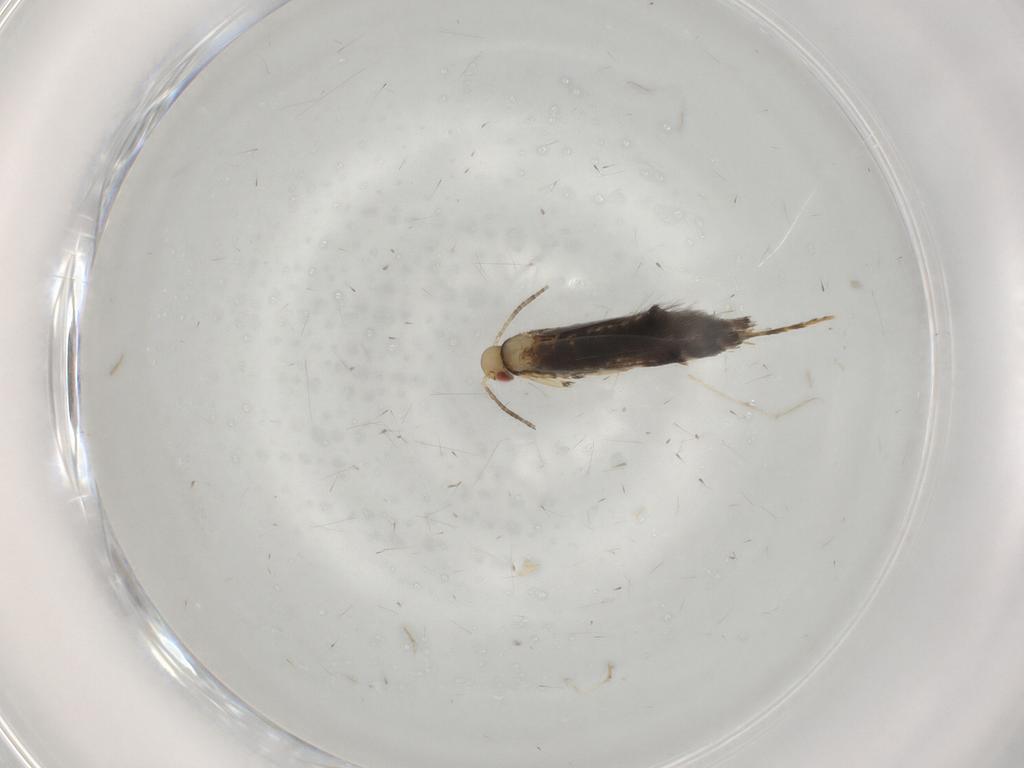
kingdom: Animalia
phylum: Arthropoda
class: Insecta
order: Lepidoptera
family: Gracillariidae
